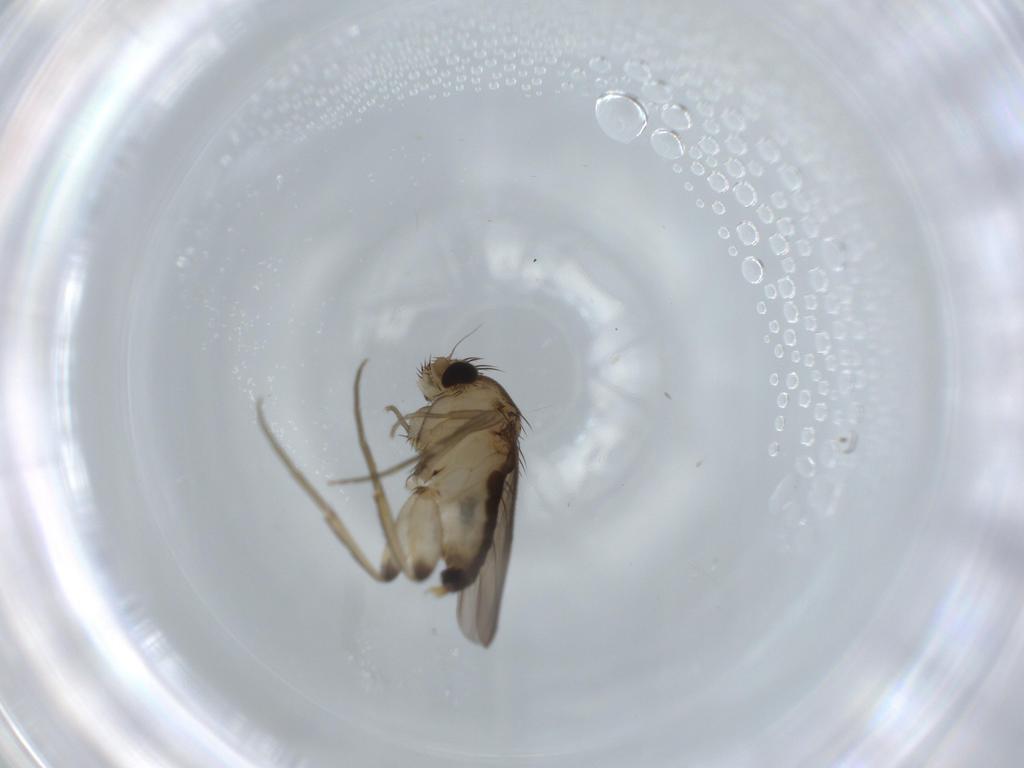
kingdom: Animalia
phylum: Arthropoda
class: Insecta
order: Diptera
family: Phoridae
